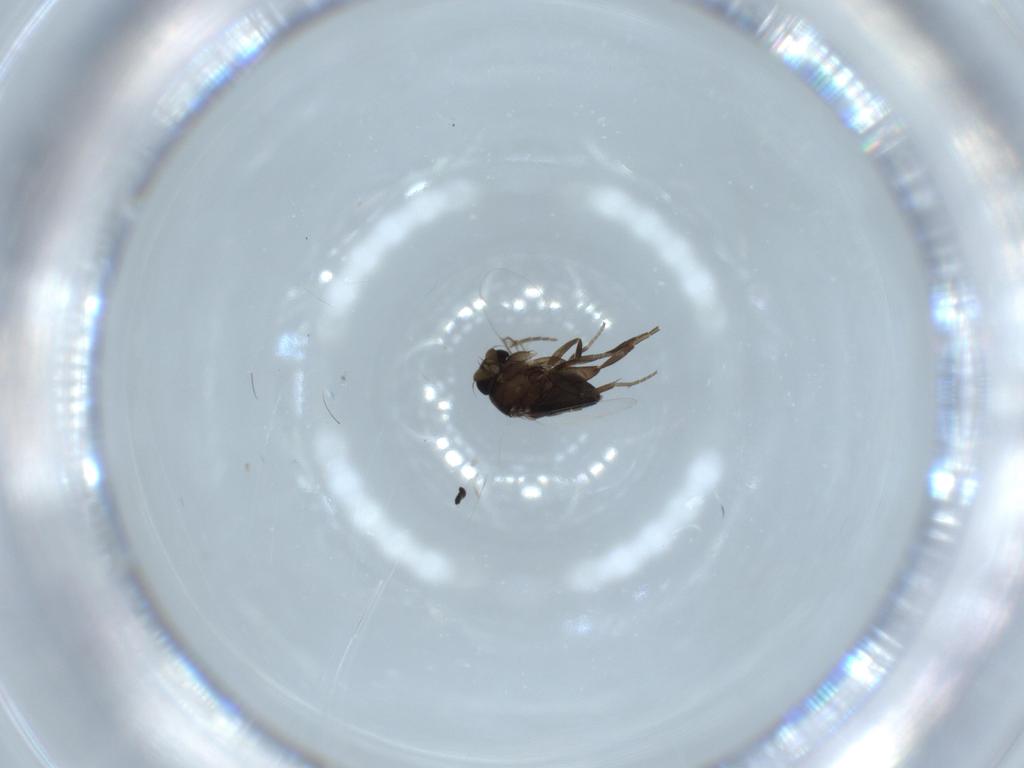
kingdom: Animalia
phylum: Arthropoda
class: Insecta
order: Diptera
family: Phoridae
